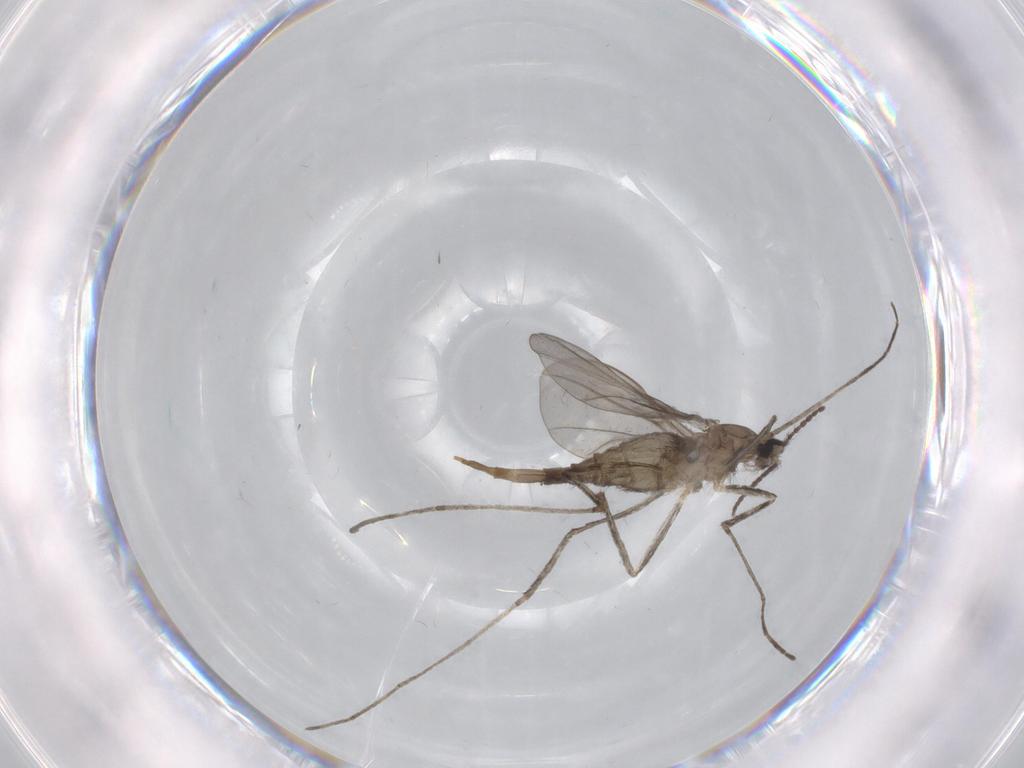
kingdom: Animalia
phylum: Arthropoda
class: Insecta
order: Diptera
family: Cecidomyiidae
